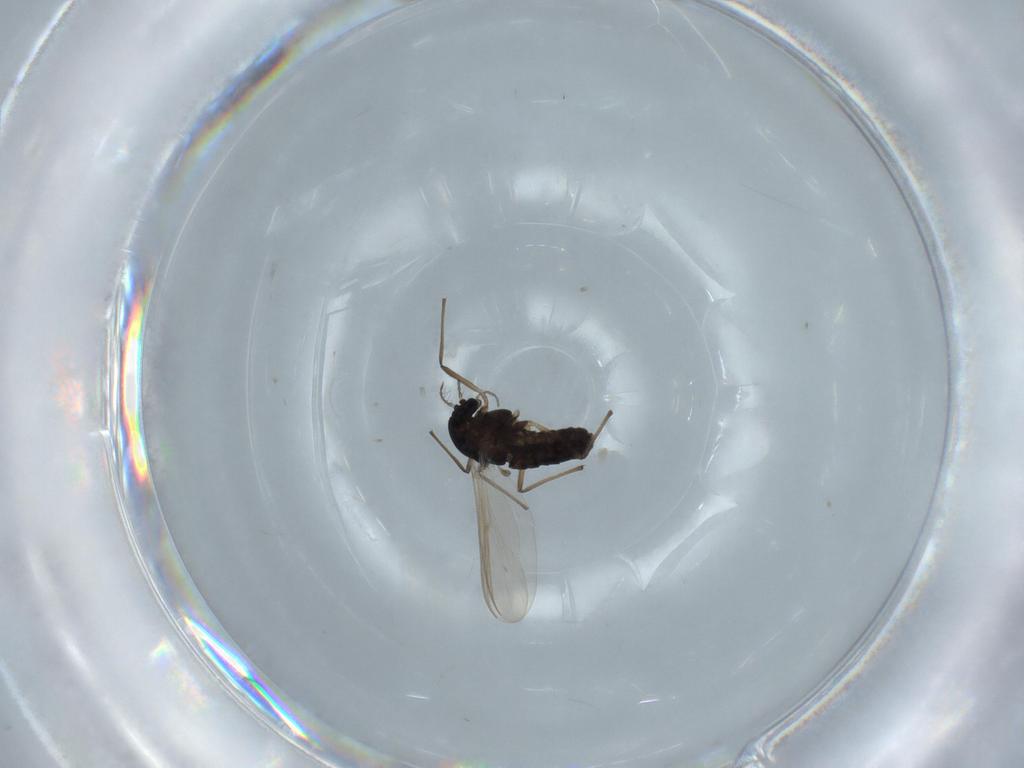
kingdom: Animalia
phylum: Arthropoda
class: Insecta
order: Diptera
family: Chironomidae
